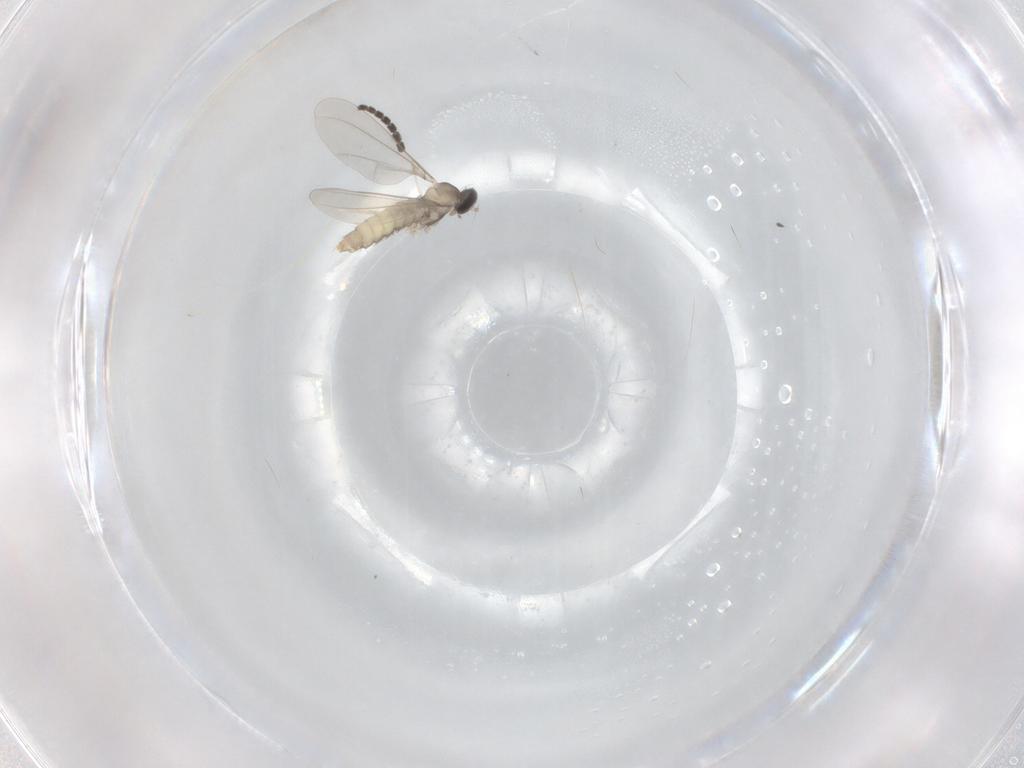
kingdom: Animalia
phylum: Arthropoda
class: Insecta
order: Diptera
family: Sciaridae
